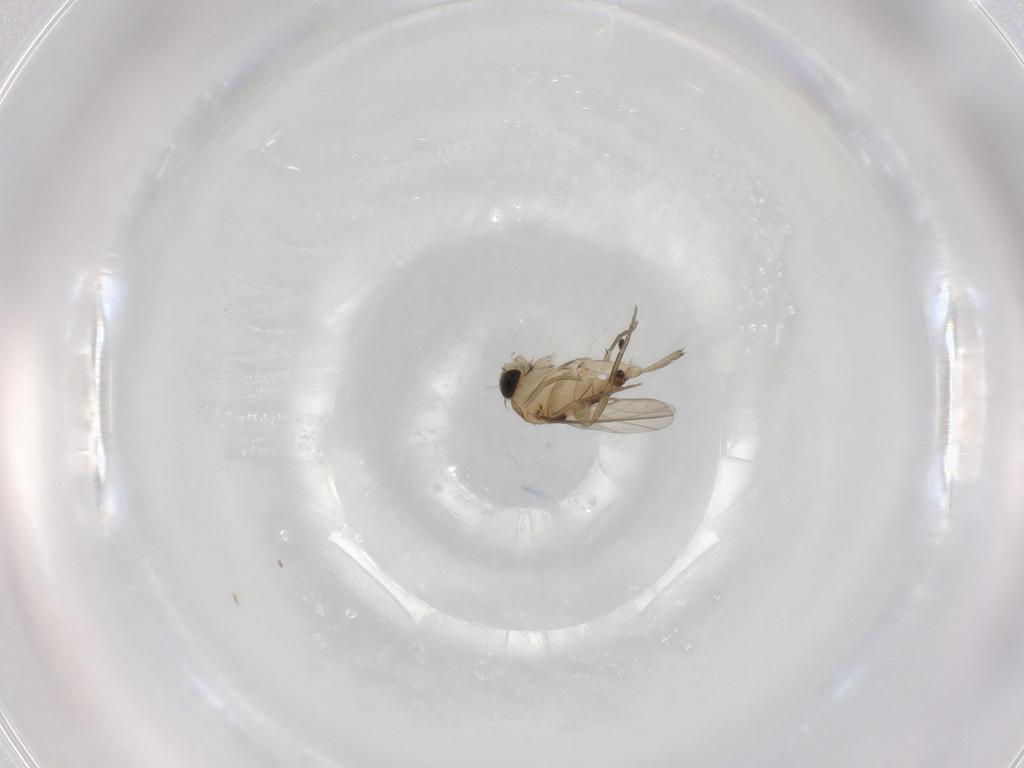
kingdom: Animalia
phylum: Arthropoda
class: Insecta
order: Diptera
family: Phoridae
